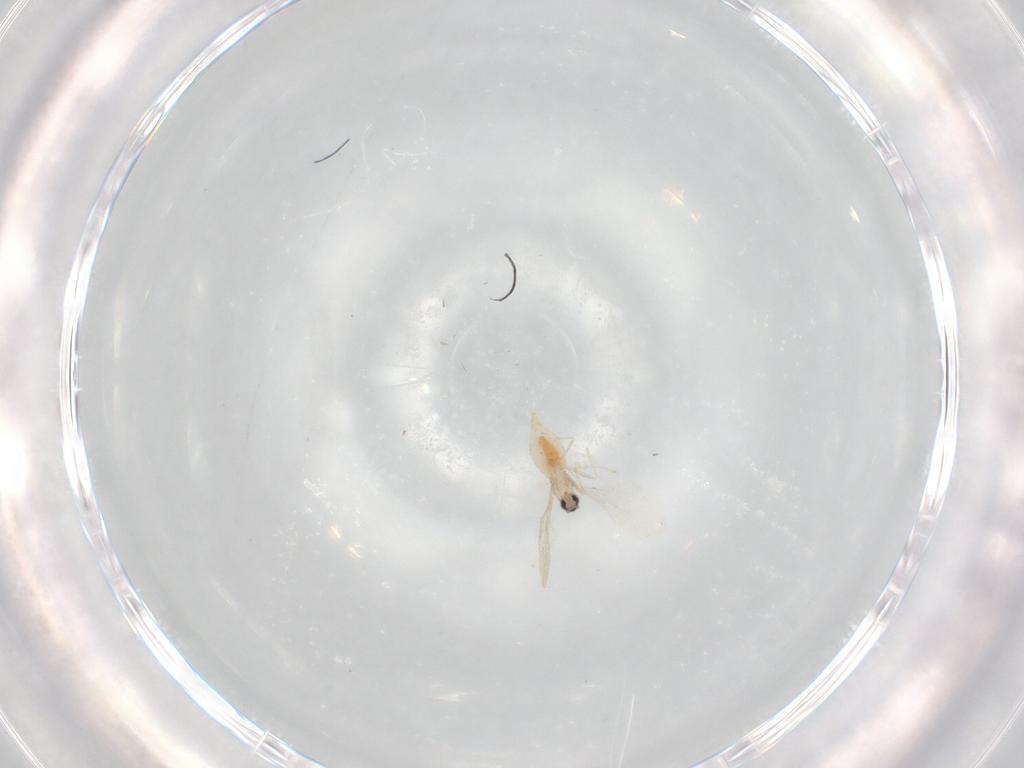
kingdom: Animalia
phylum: Arthropoda
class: Insecta
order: Diptera
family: Cecidomyiidae
